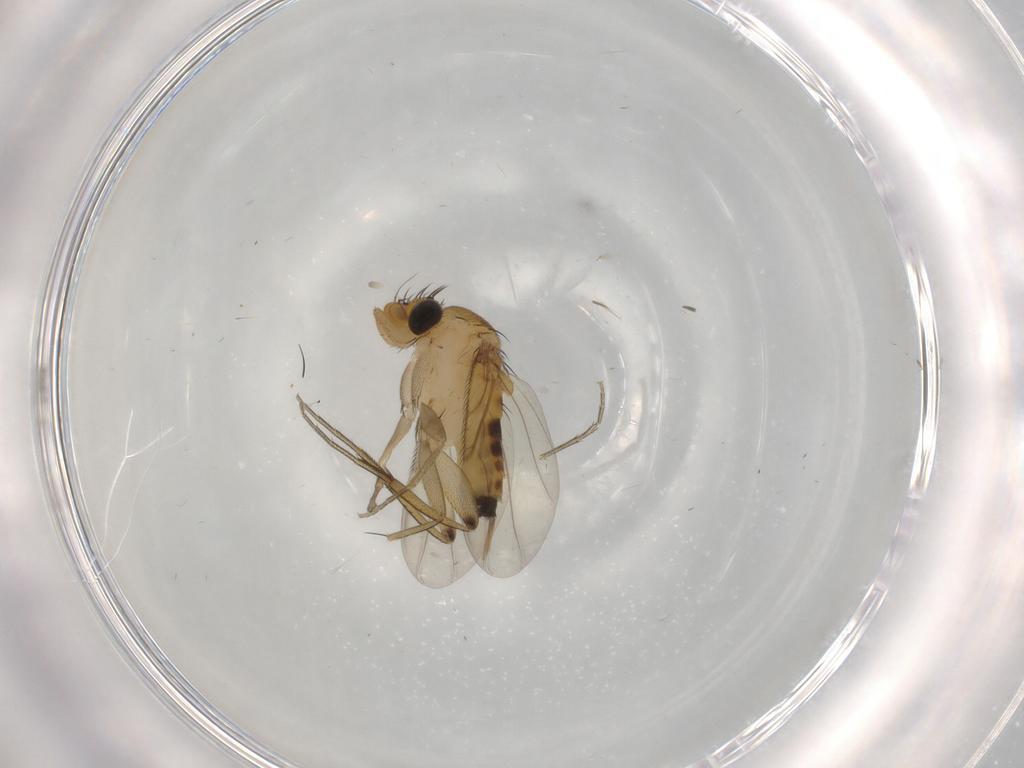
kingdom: Animalia
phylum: Arthropoda
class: Insecta
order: Diptera
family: Phoridae
